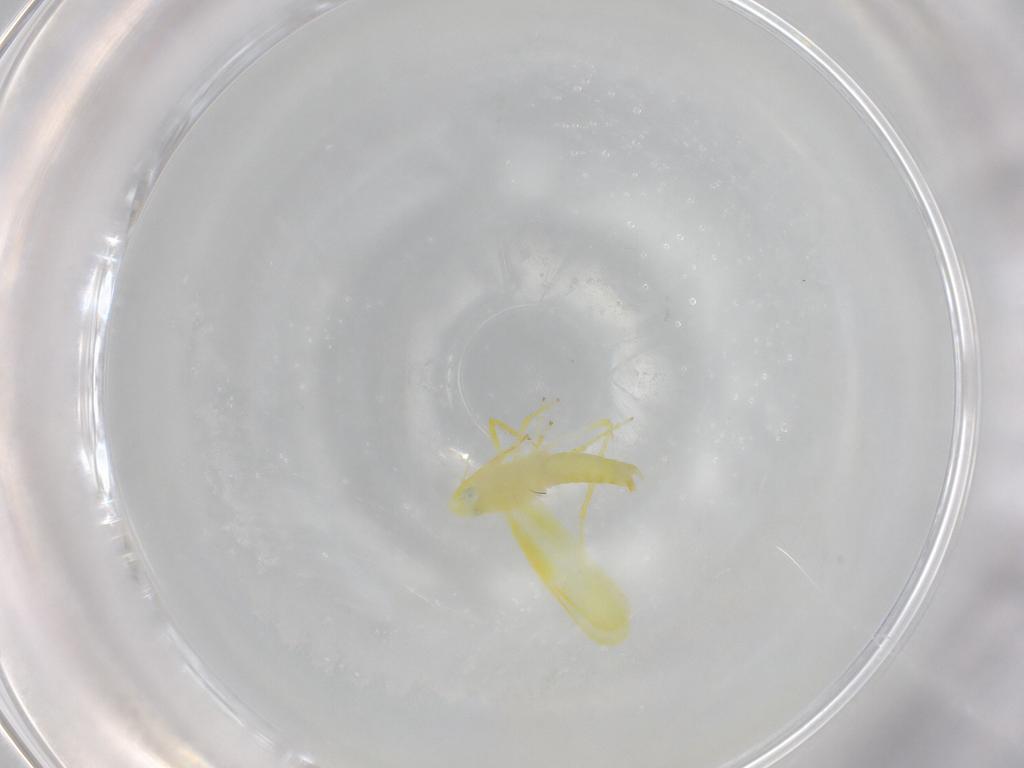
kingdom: Animalia
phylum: Arthropoda
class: Insecta
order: Hemiptera
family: Cicadellidae
